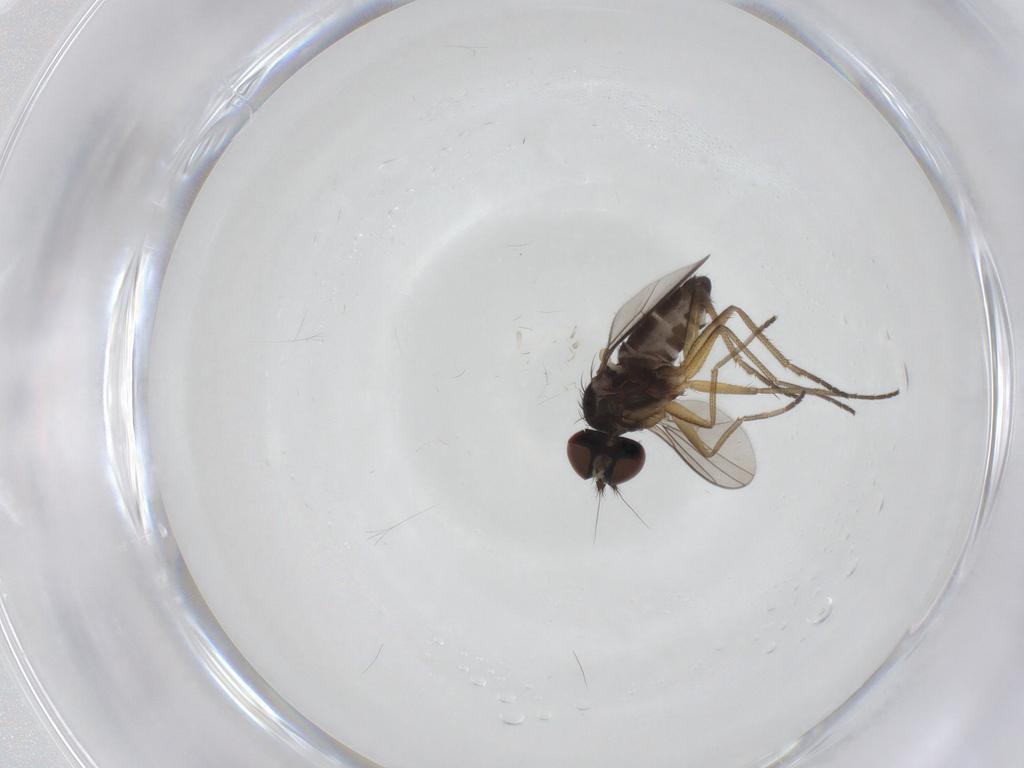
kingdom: Animalia
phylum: Arthropoda
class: Insecta
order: Diptera
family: Dolichopodidae
